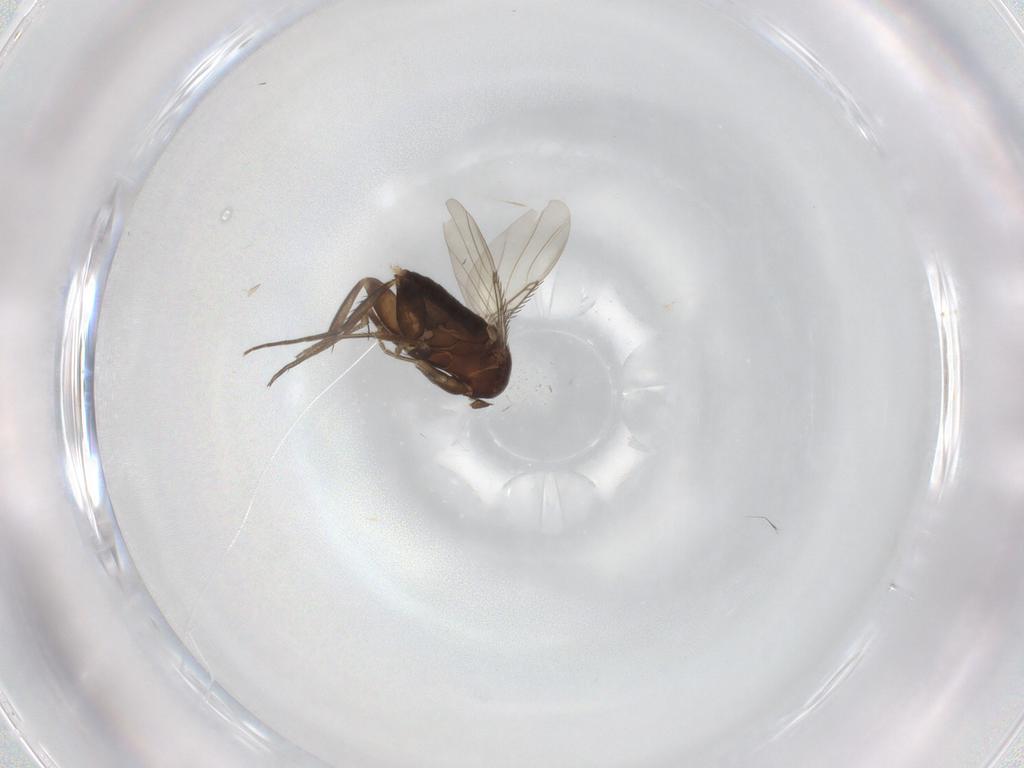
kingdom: Animalia
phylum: Arthropoda
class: Insecta
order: Diptera
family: Phoridae
